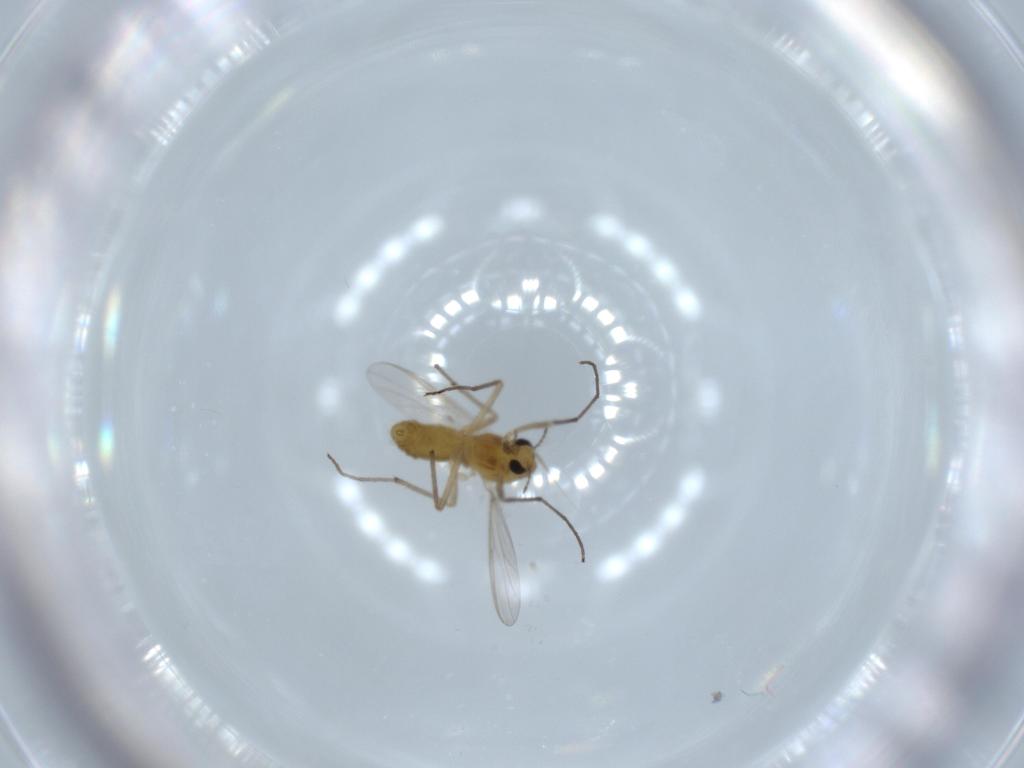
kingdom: Animalia
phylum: Arthropoda
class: Insecta
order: Diptera
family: Chironomidae
